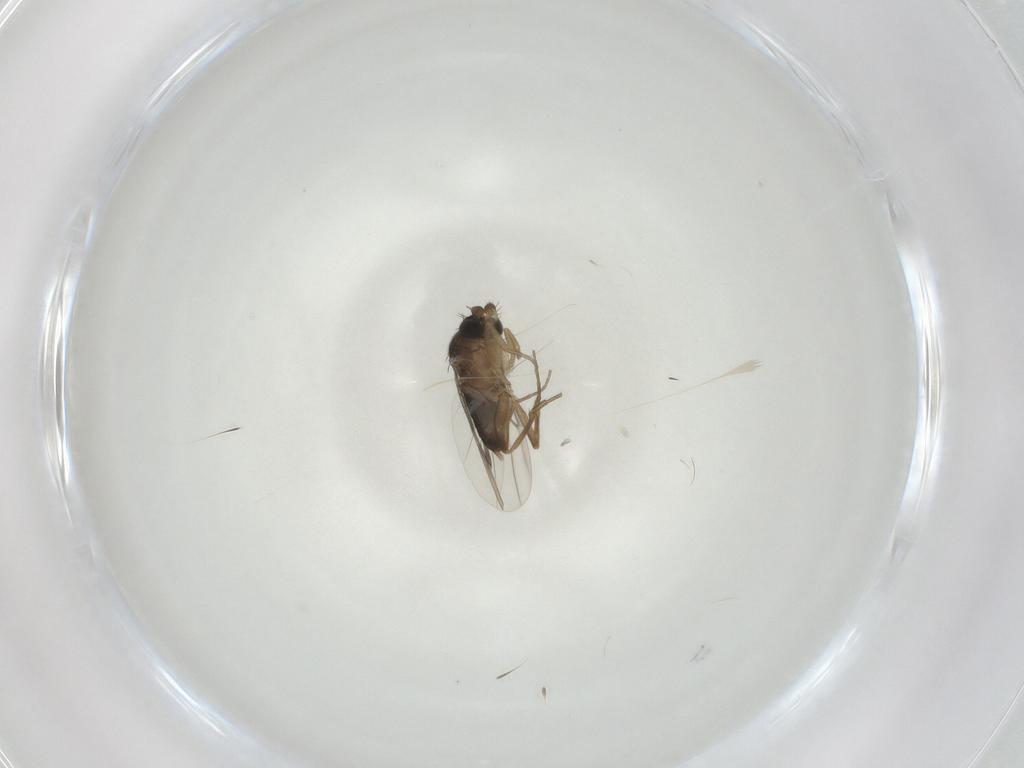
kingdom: Animalia
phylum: Arthropoda
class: Insecta
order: Diptera
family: Phoridae
